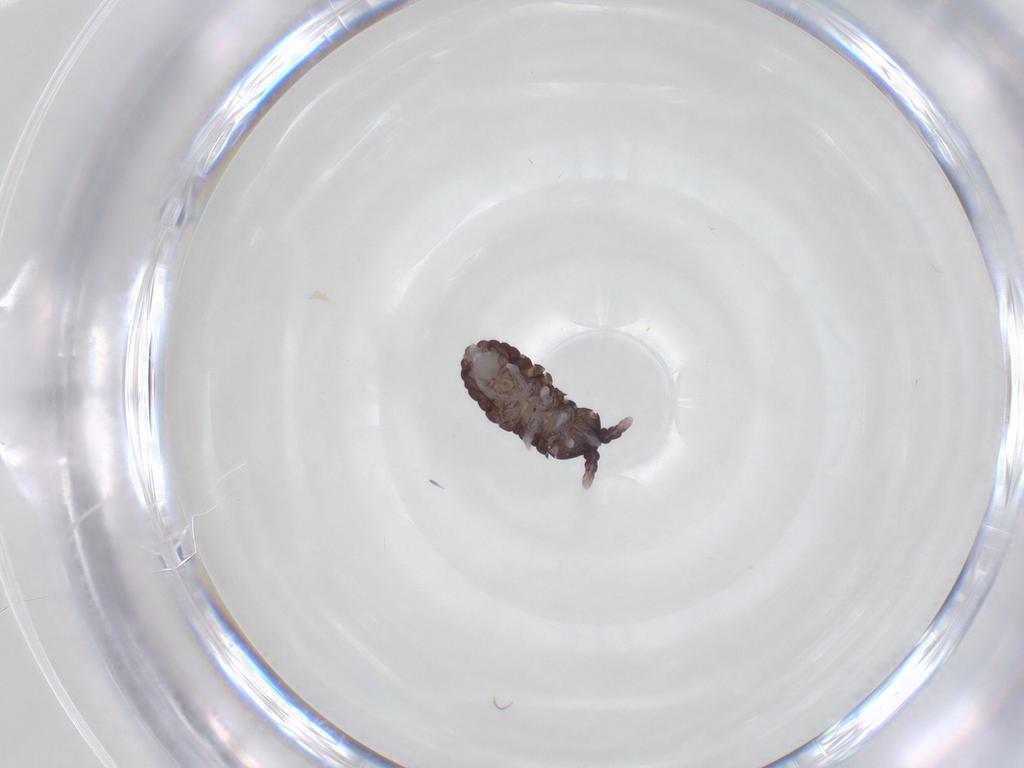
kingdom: Animalia
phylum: Arthropoda
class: Collembola
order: Poduromorpha
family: Neanuridae
